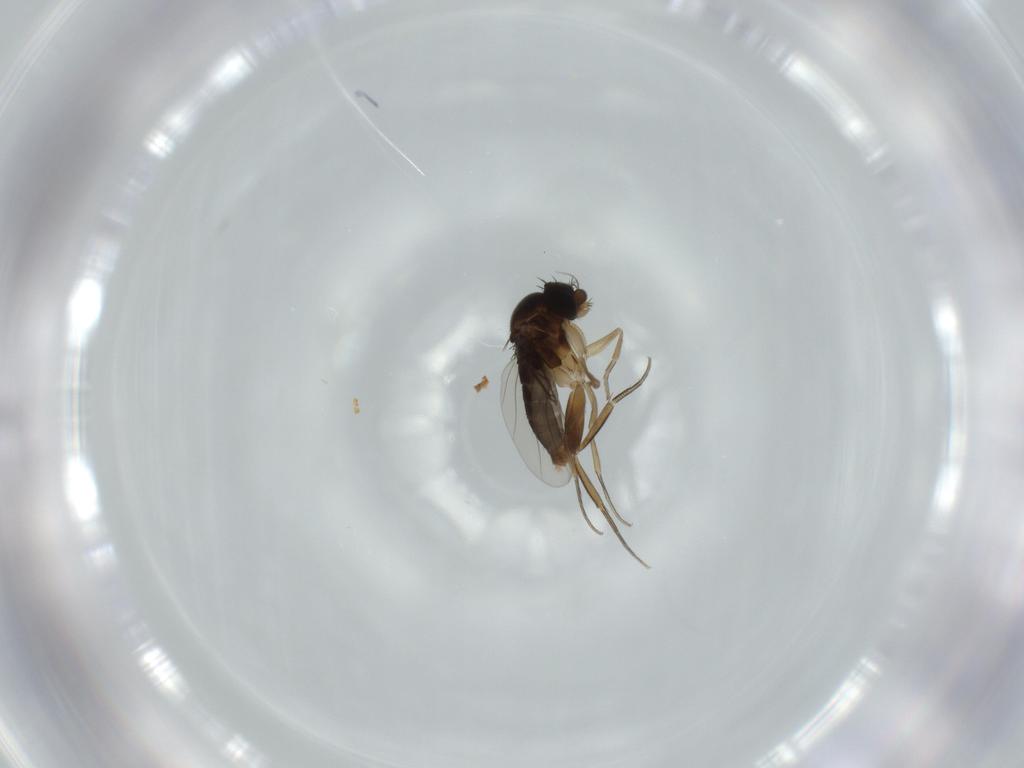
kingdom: Animalia
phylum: Arthropoda
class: Insecta
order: Diptera
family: Phoridae
